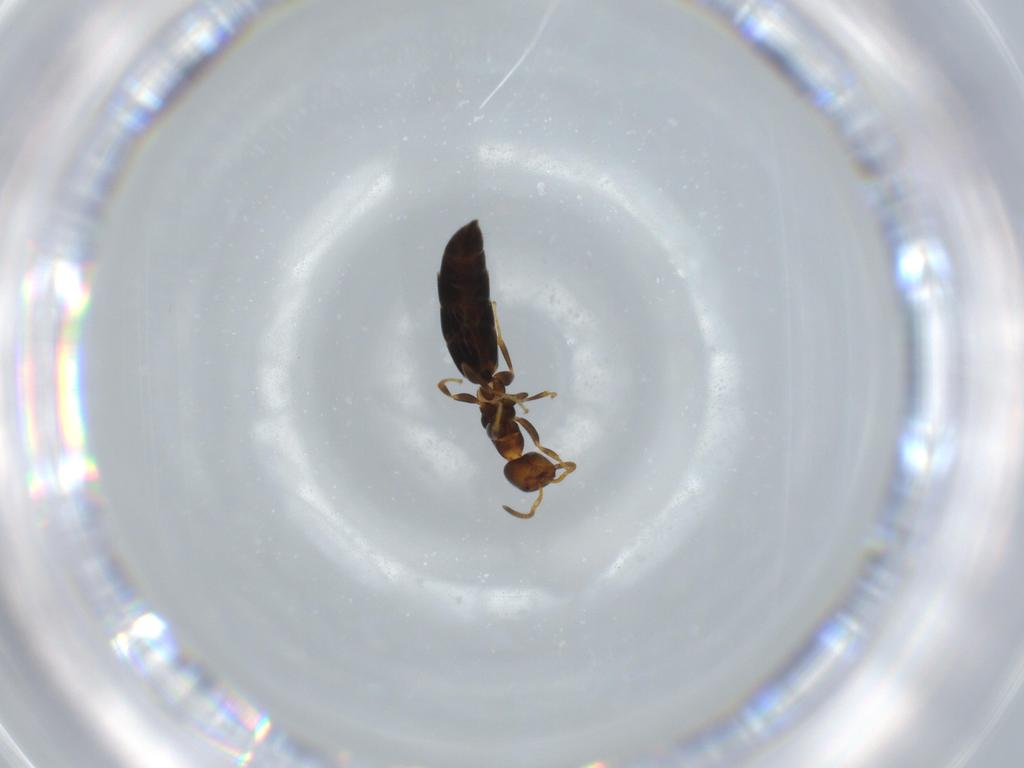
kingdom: Animalia
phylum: Arthropoda
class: Insecta
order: Hymenoptera
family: Bethylidae
